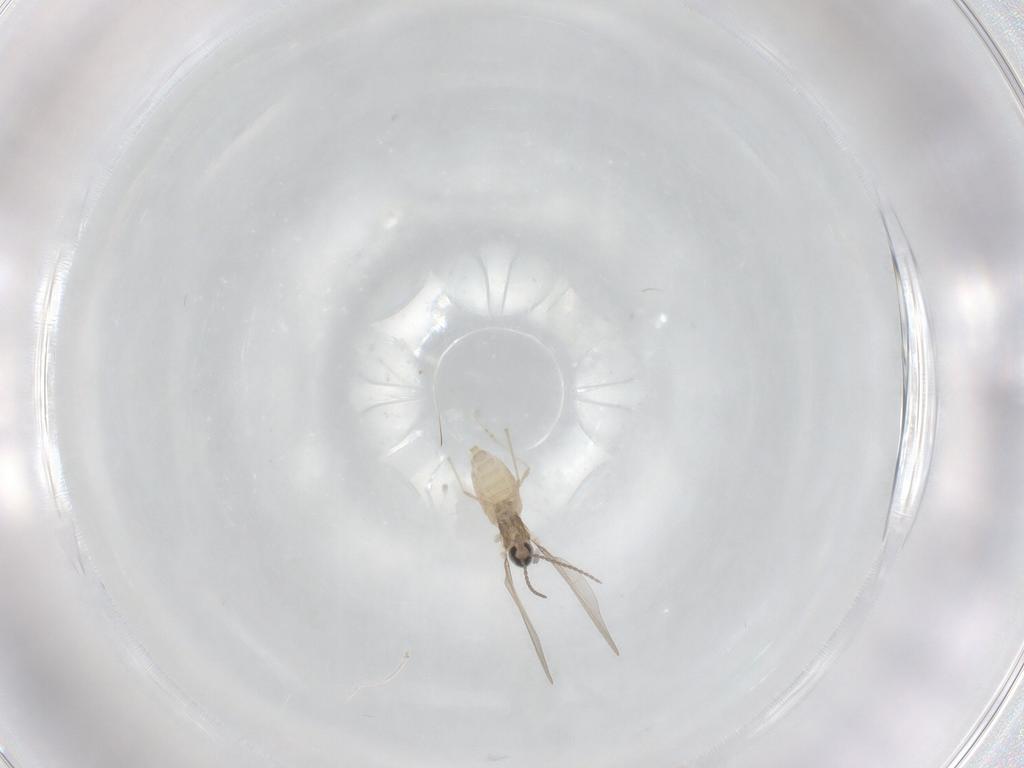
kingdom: Animalia
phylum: Arthropoda
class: Insecta
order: Diptera
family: Cecidomyiidae
